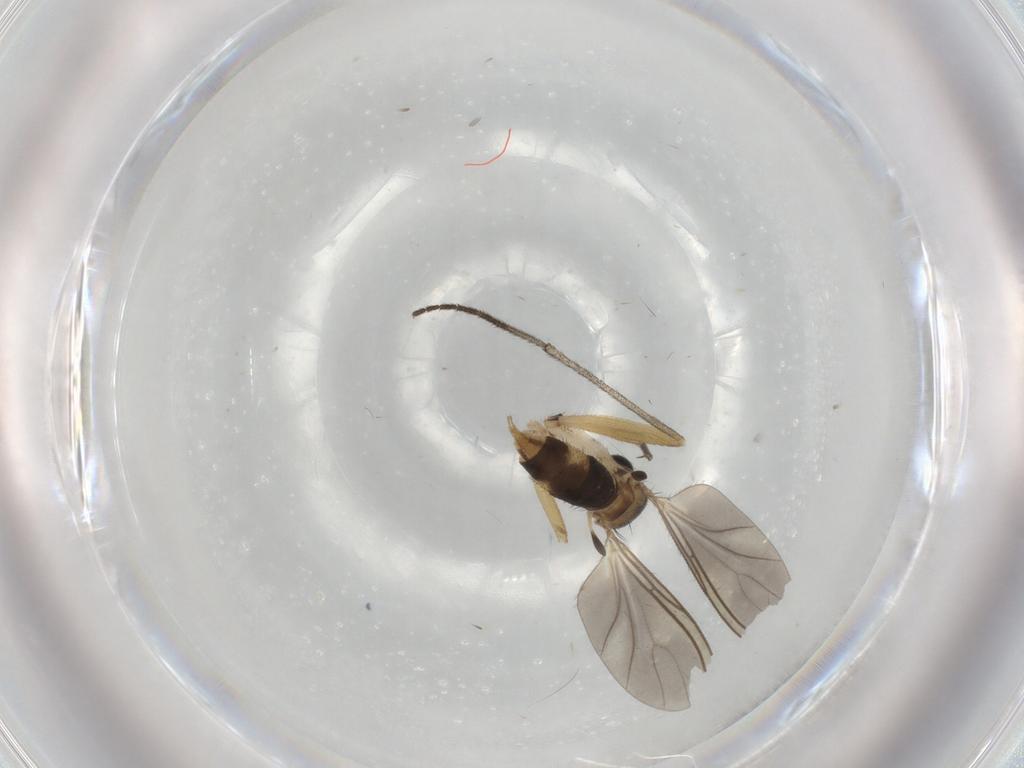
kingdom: Animalia
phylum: Arthropoda
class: Insecta
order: Diptera
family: Sciaridae
